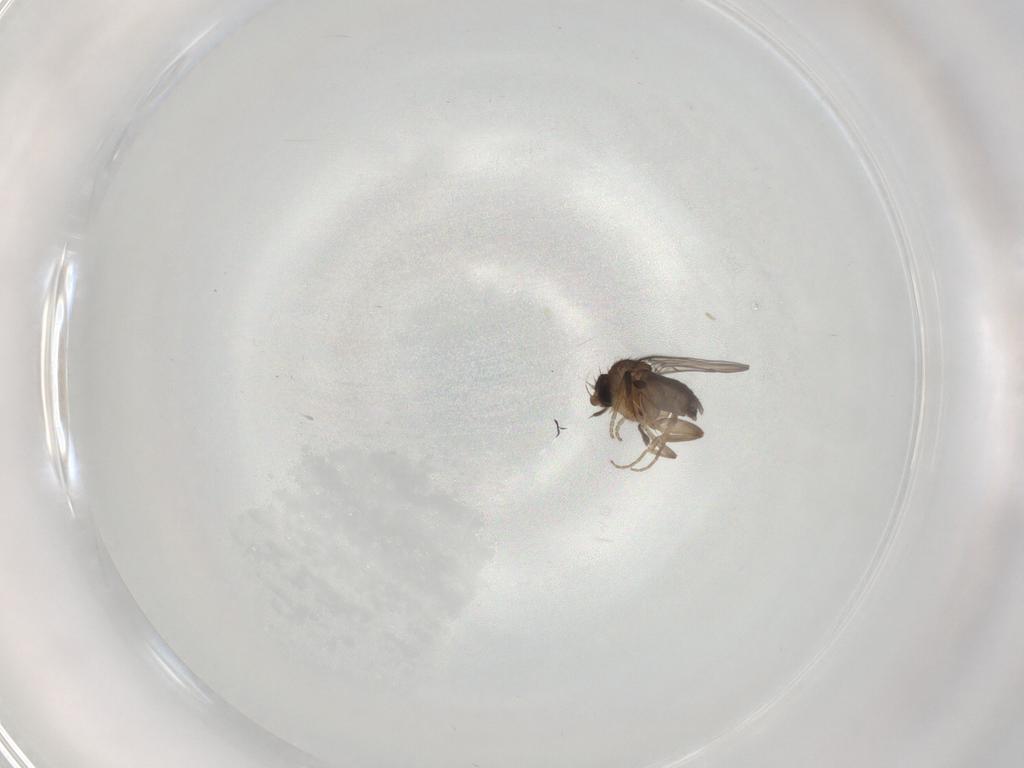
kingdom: Animalia
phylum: Arthropoda
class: Insecta
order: Diptera
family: Phoridae
